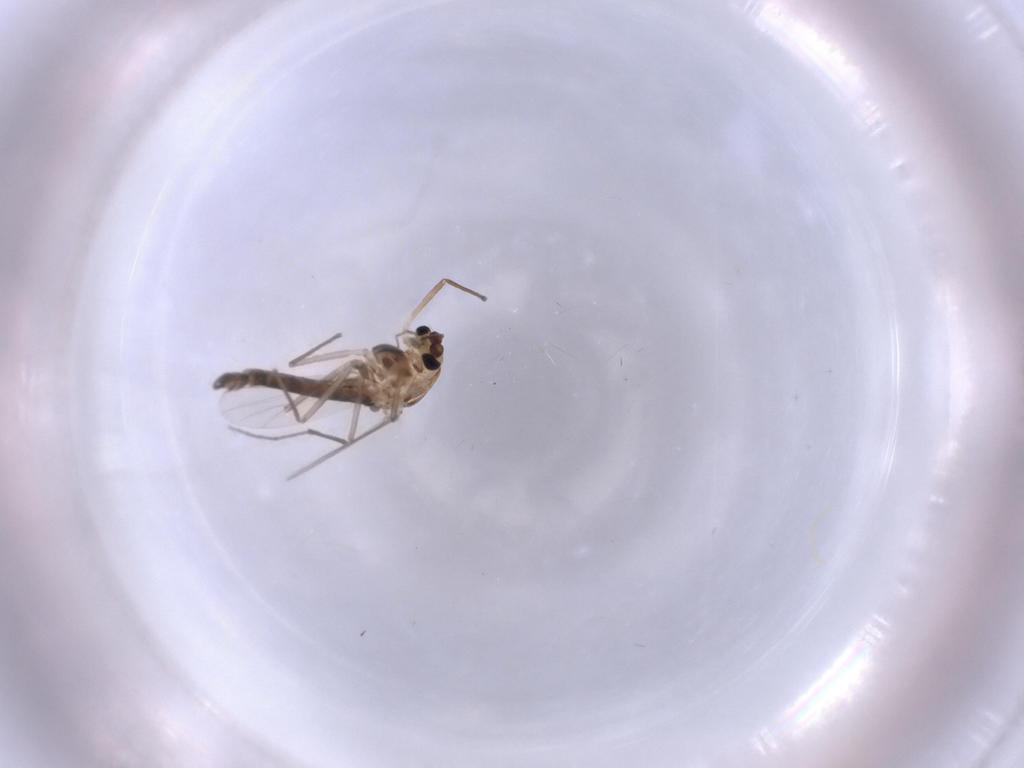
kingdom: Animalia
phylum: Arthropoda
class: Insecta
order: Diptera
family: Chironomidae
